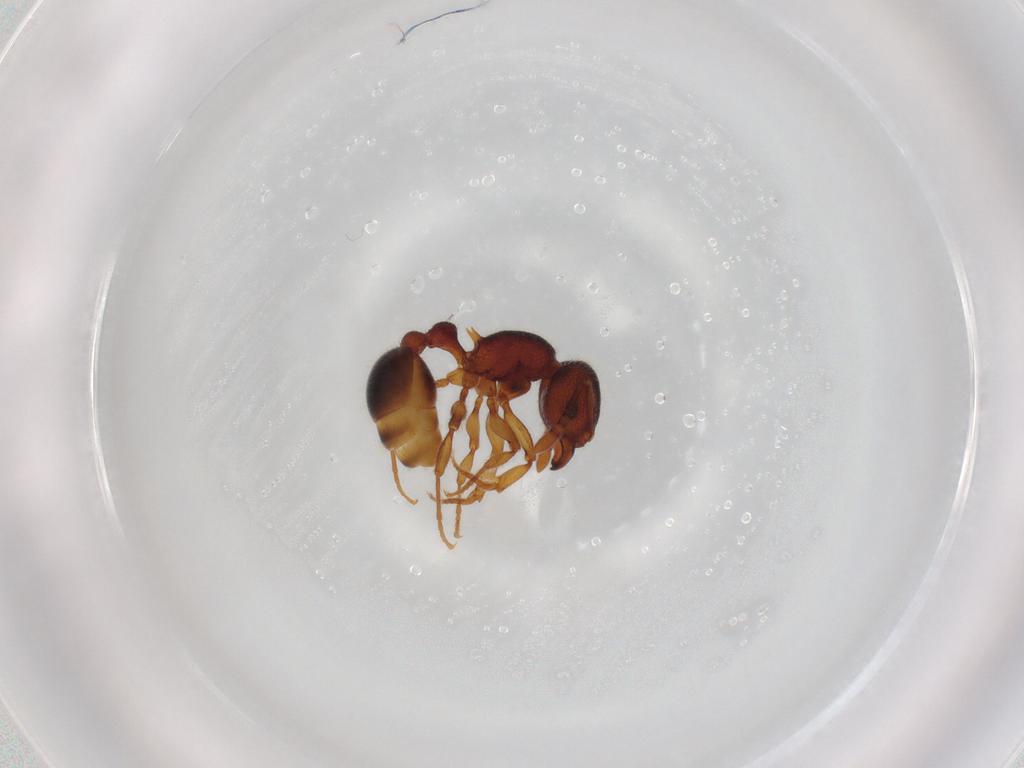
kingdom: Animalia
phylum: Arthropoda
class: Insecta
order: Hymenoptera
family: Formicidae
